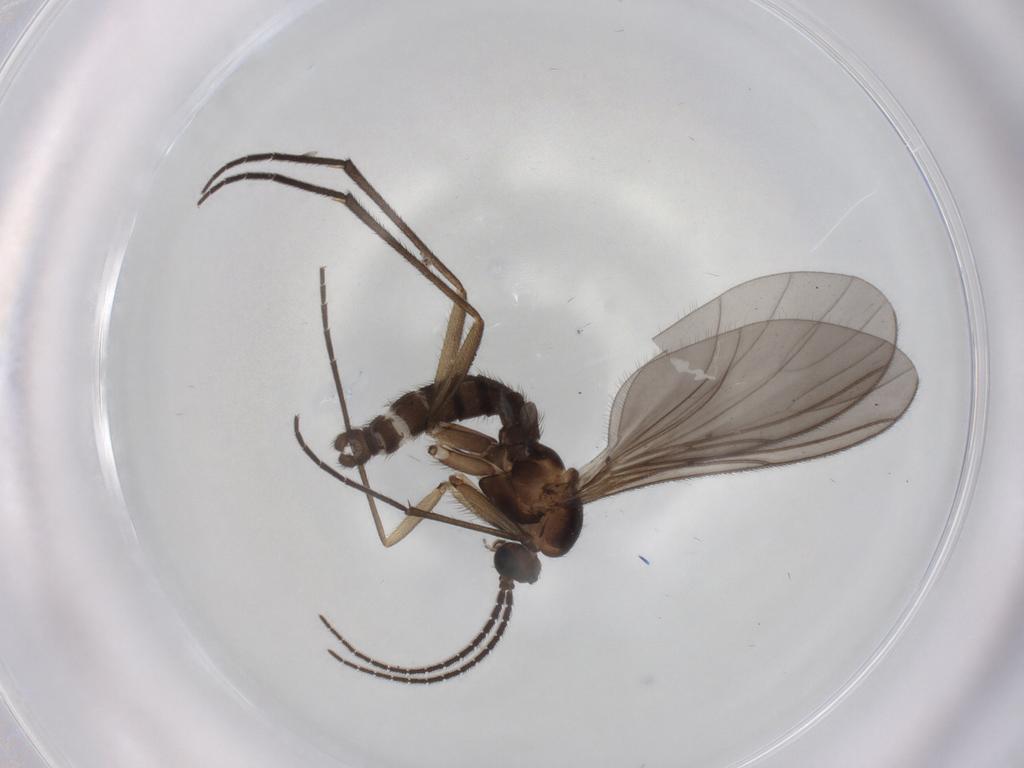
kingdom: Animalia
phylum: Arthropoda
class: Insecta
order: Diptera
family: Sciaridae
